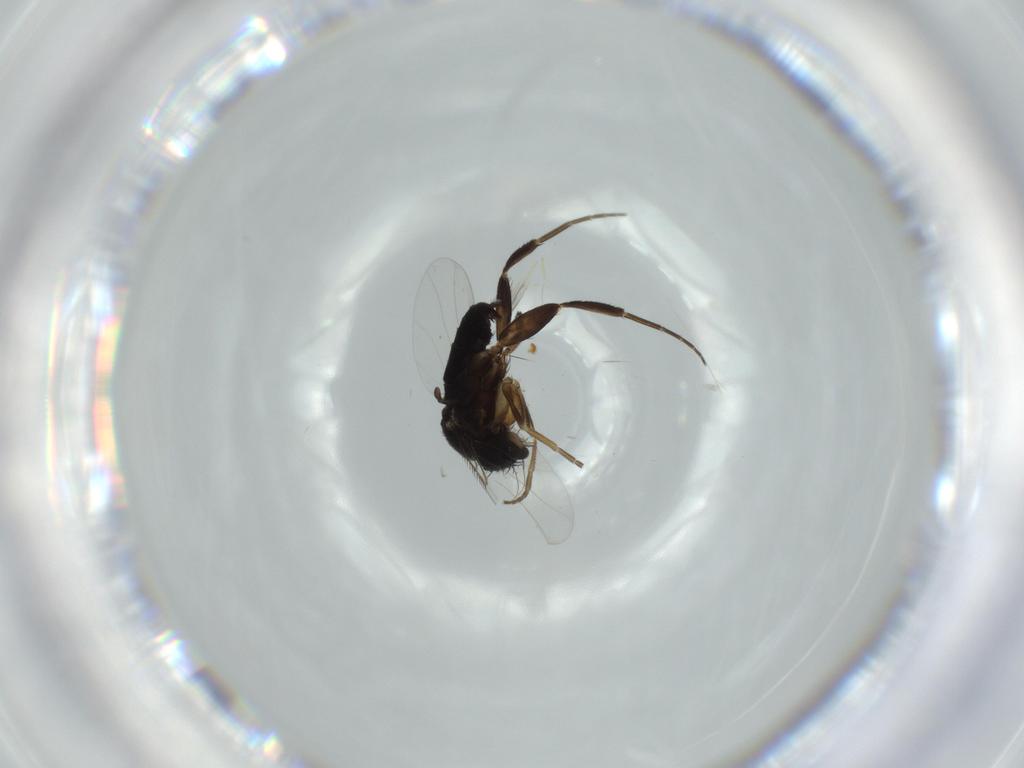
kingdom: Animalia
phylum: Arthropoda
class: Insecta
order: Diptera
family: Phoridae
